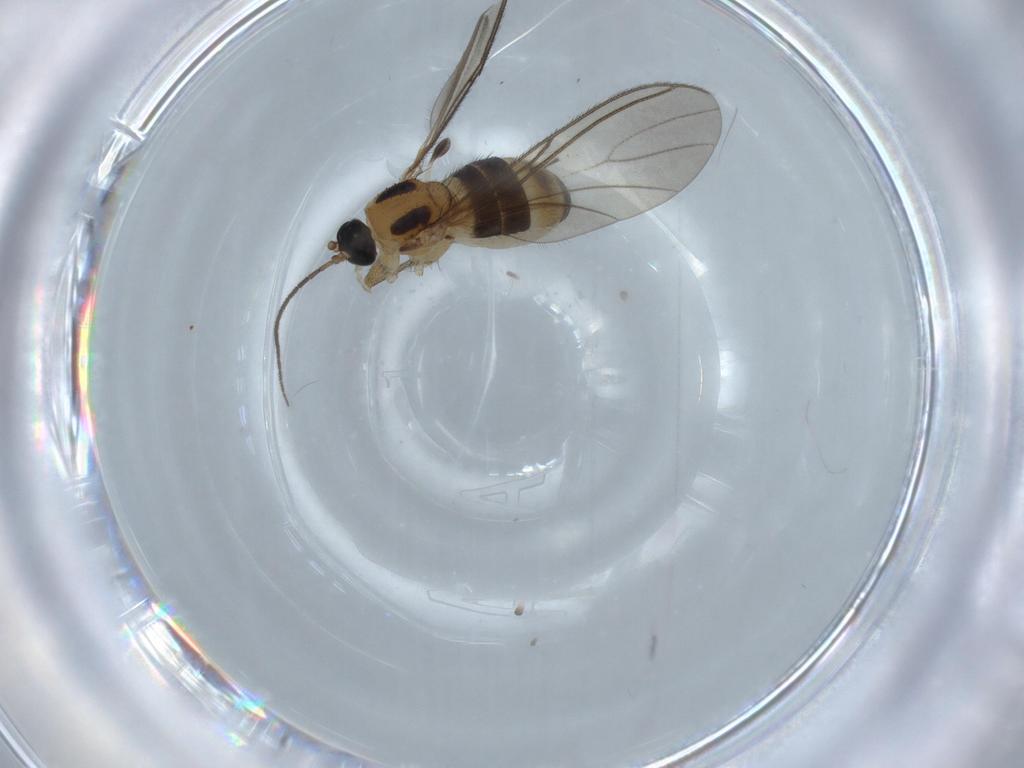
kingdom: Animalia
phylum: Arthropoda
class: Insecta
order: Diptera
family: Sciaridae
